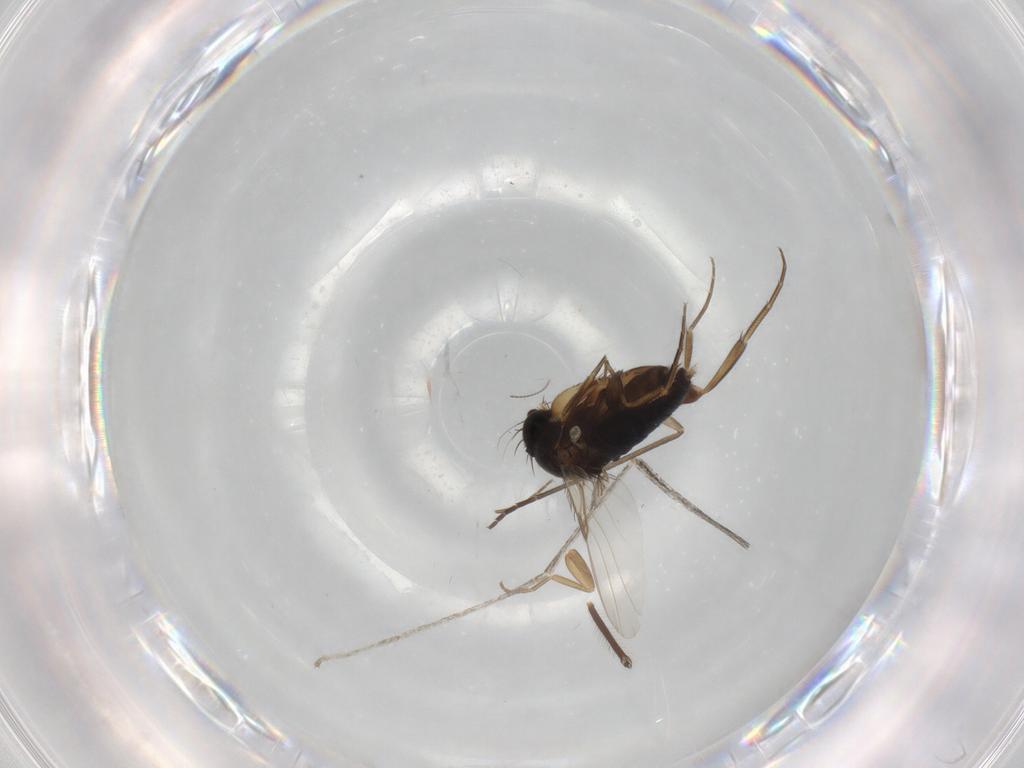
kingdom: Animalia
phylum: Arthropoda
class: Insecta
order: Diptera
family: Sciaridae
